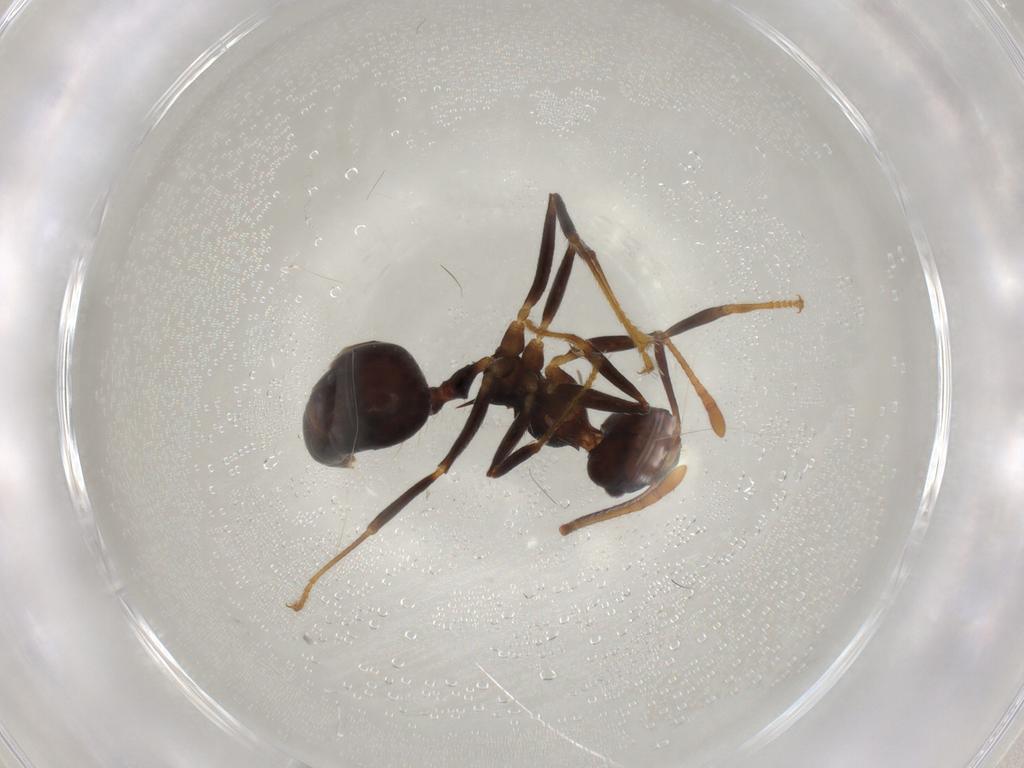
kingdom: Animalia
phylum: Arthropoda
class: Insecta
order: Hymenoptera
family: Formicidae
